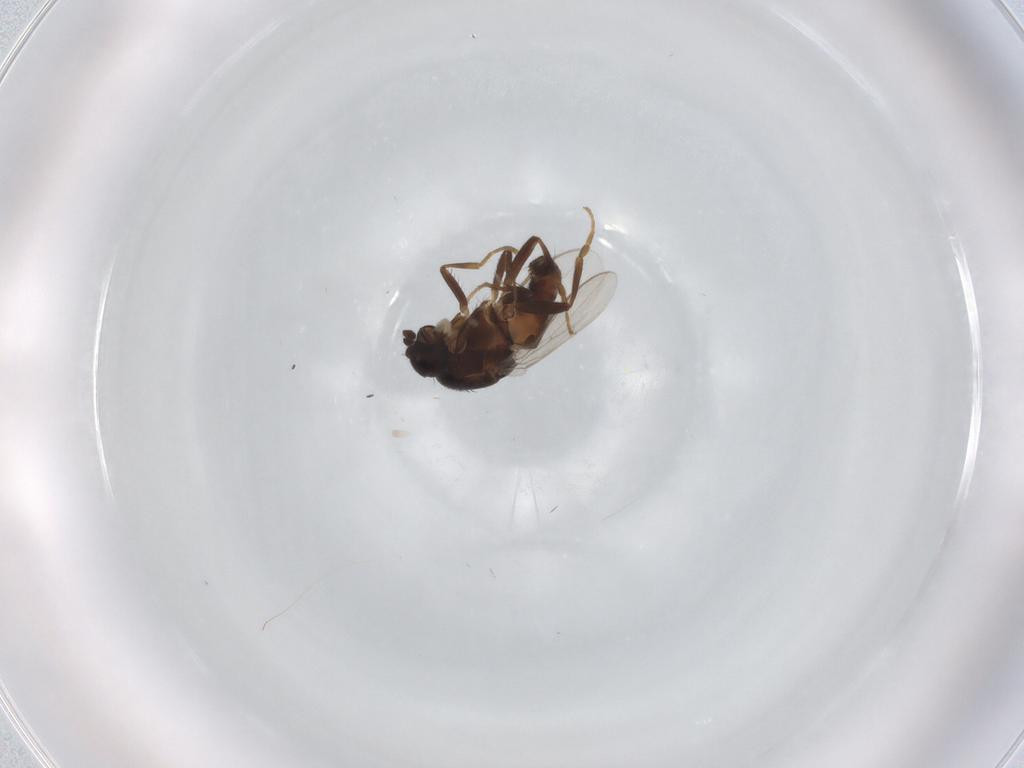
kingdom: Animalia
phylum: Arthropoda
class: Insecta
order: Diptera
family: Sphaeroceridae
